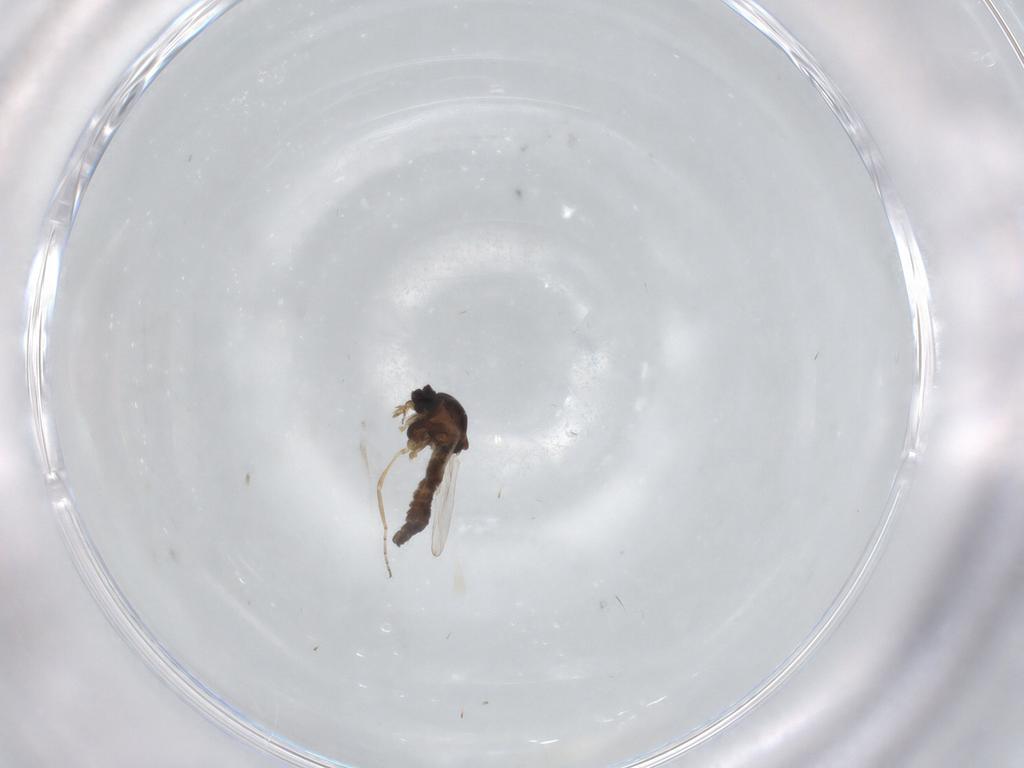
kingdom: Animalia
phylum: Arthropoda
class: Insecta
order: Diptera
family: Ceratopogonidae
